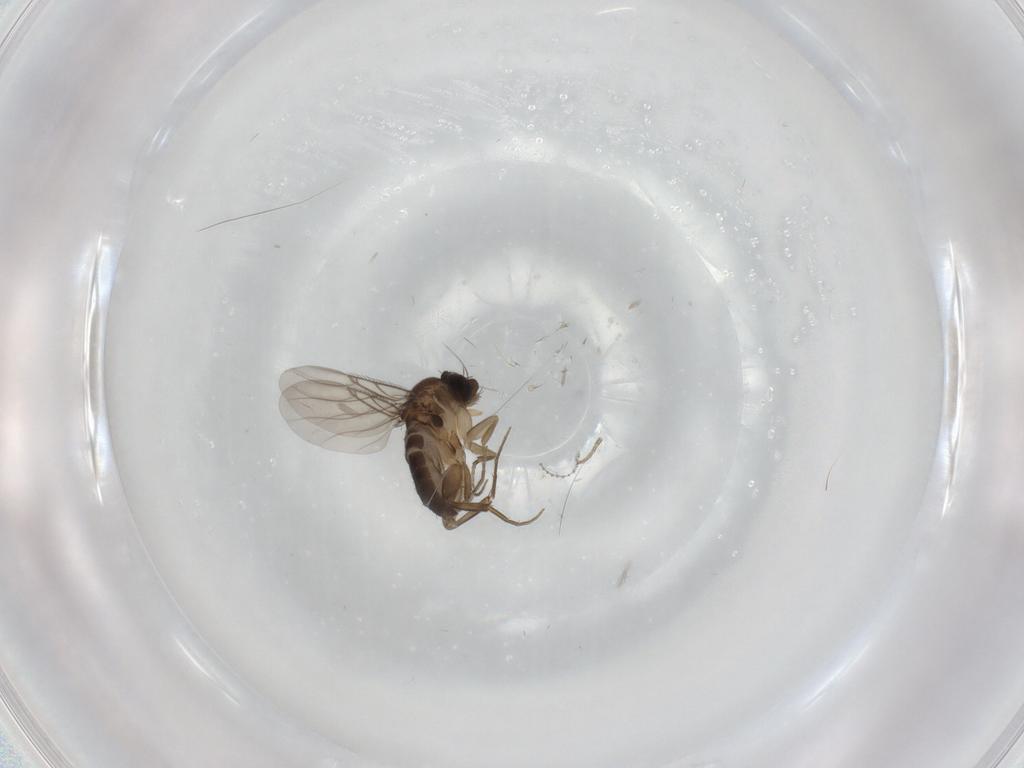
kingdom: Animalia
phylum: Arthropoda
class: Insecta
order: Diptera
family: Phoridae
